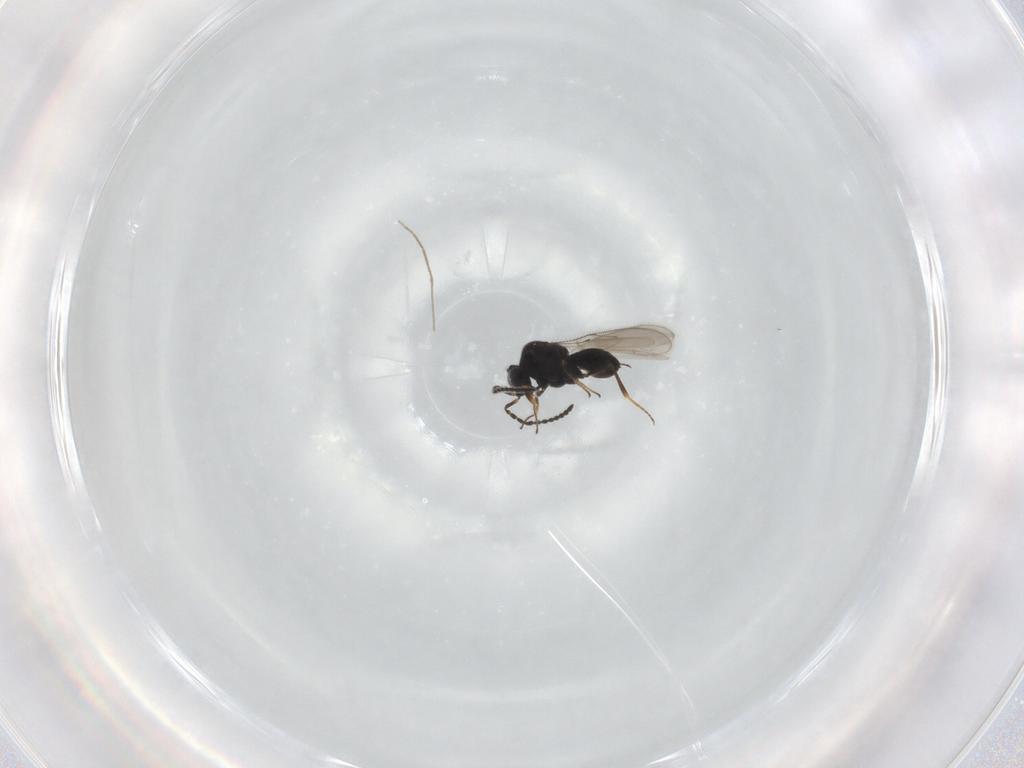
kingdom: Animalia
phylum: Arthropoda
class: Insecta
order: Hymenoptera
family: Scelionidae
